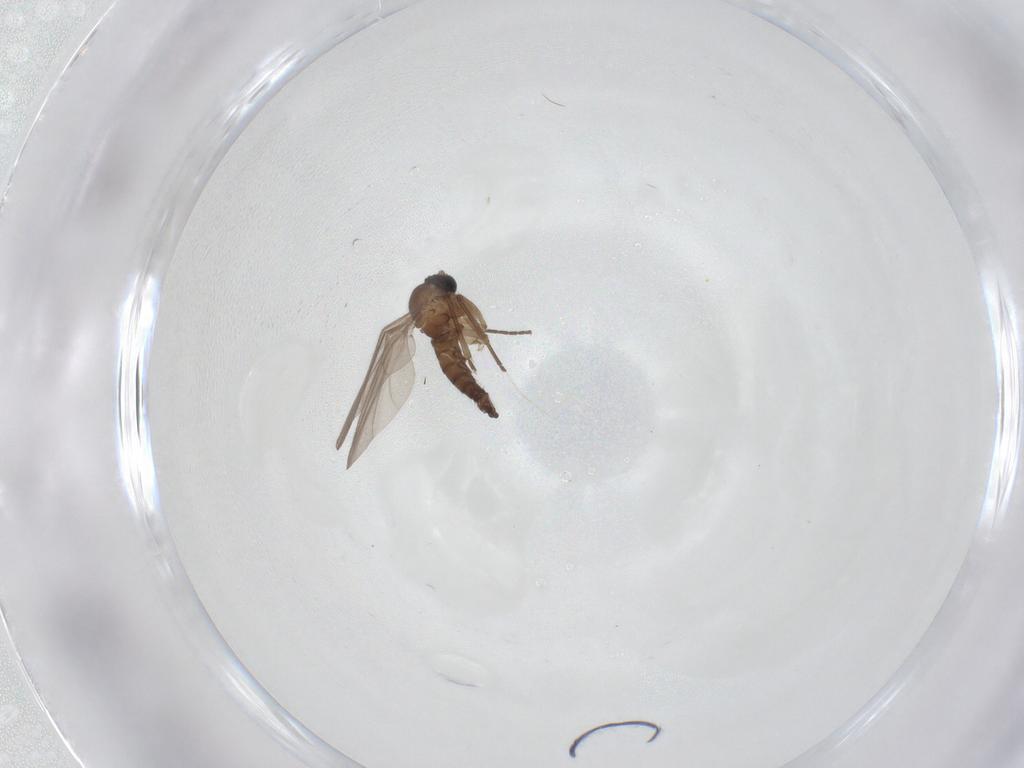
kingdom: Animalia
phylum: Arthropoda
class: Insecta
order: Diptera
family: Sciaridae
